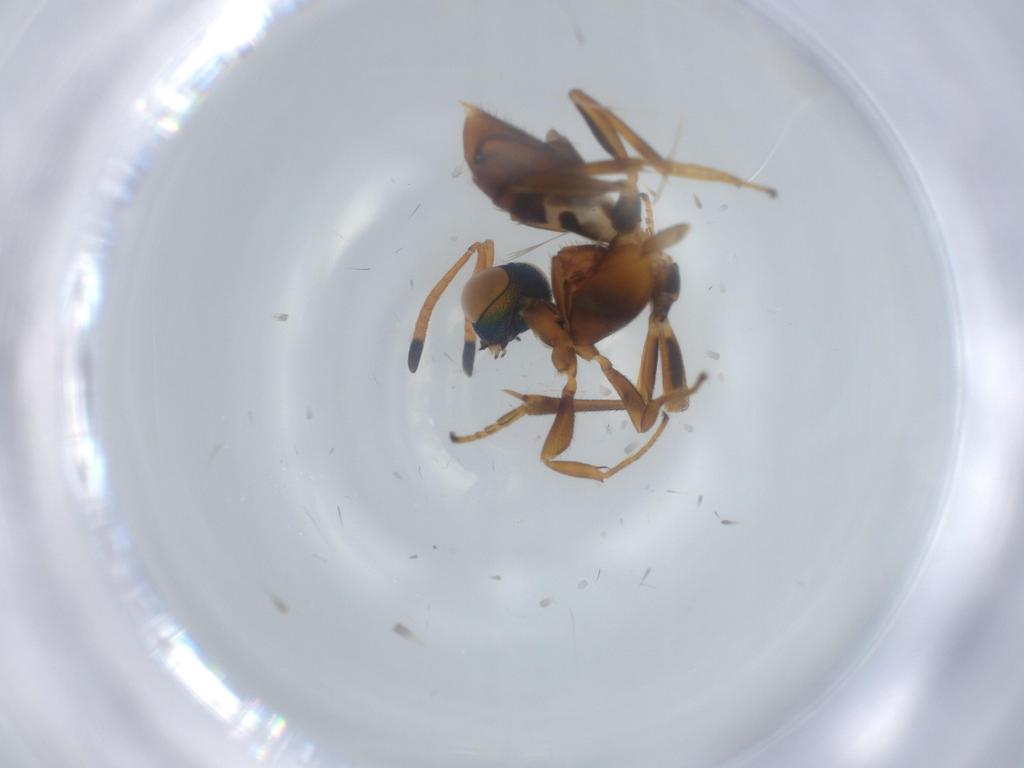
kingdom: Animalia
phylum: Arthropoda
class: Insecta
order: Hymenoptera
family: Eupelmidae
